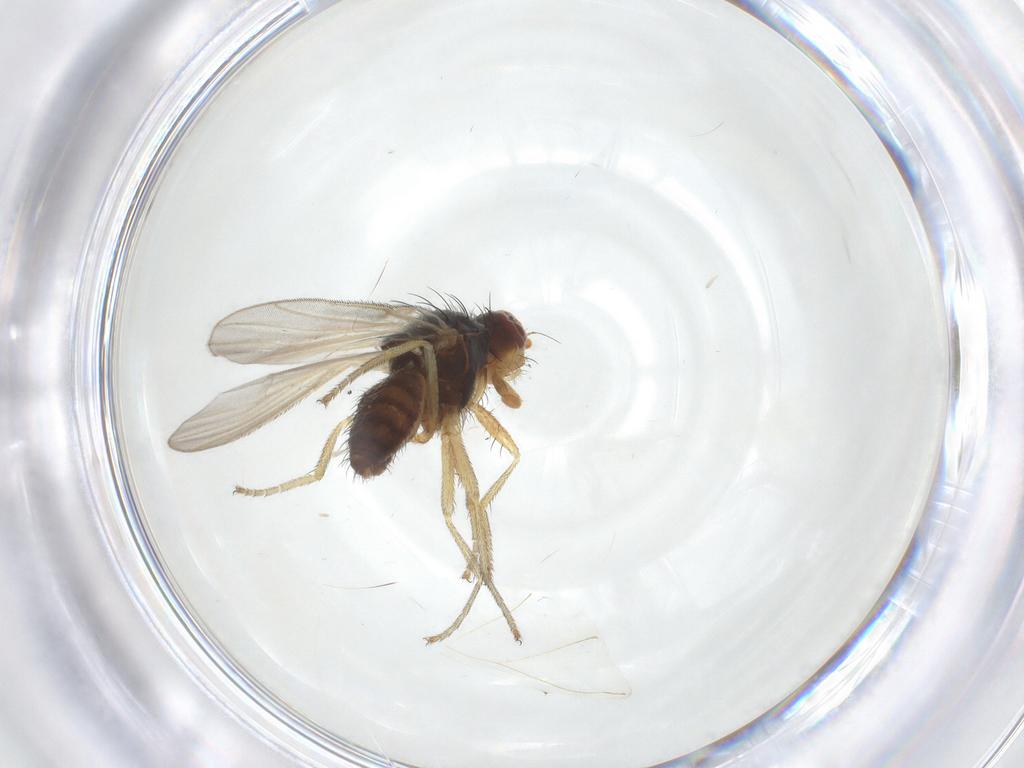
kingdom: Animalia
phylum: Arthropoda
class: Insecta
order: Diptera
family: Heleomyzidae
